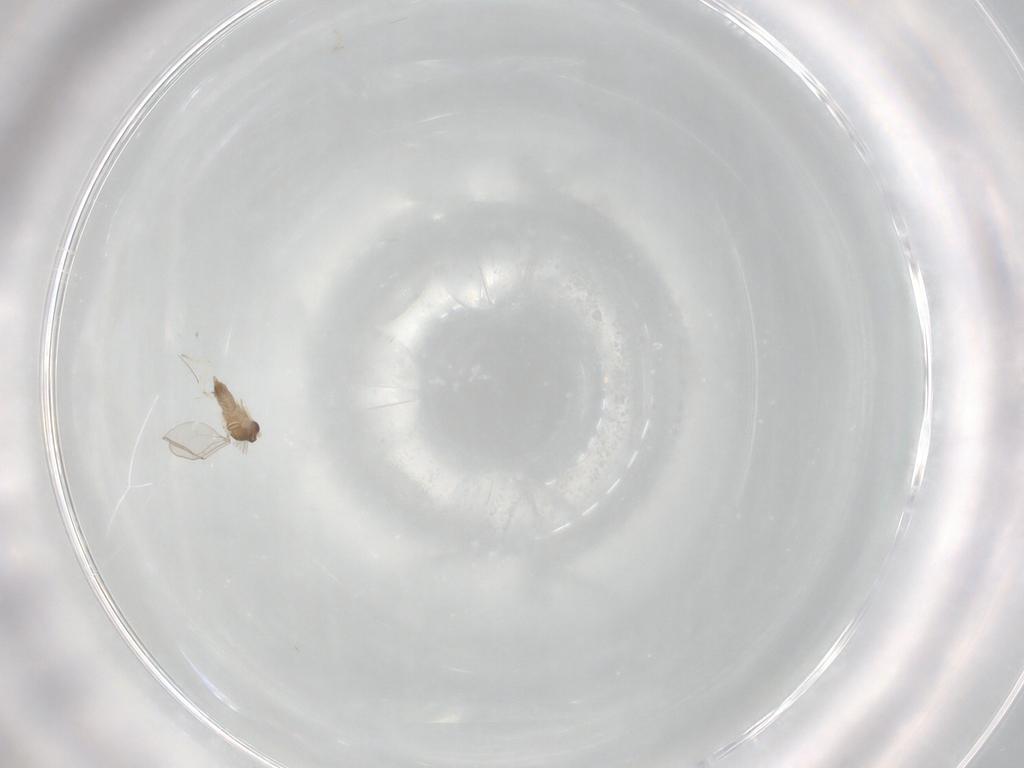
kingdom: Animalia
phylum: Arthropoda
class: Insecta
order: Diptera
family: Cecidomyiidae
